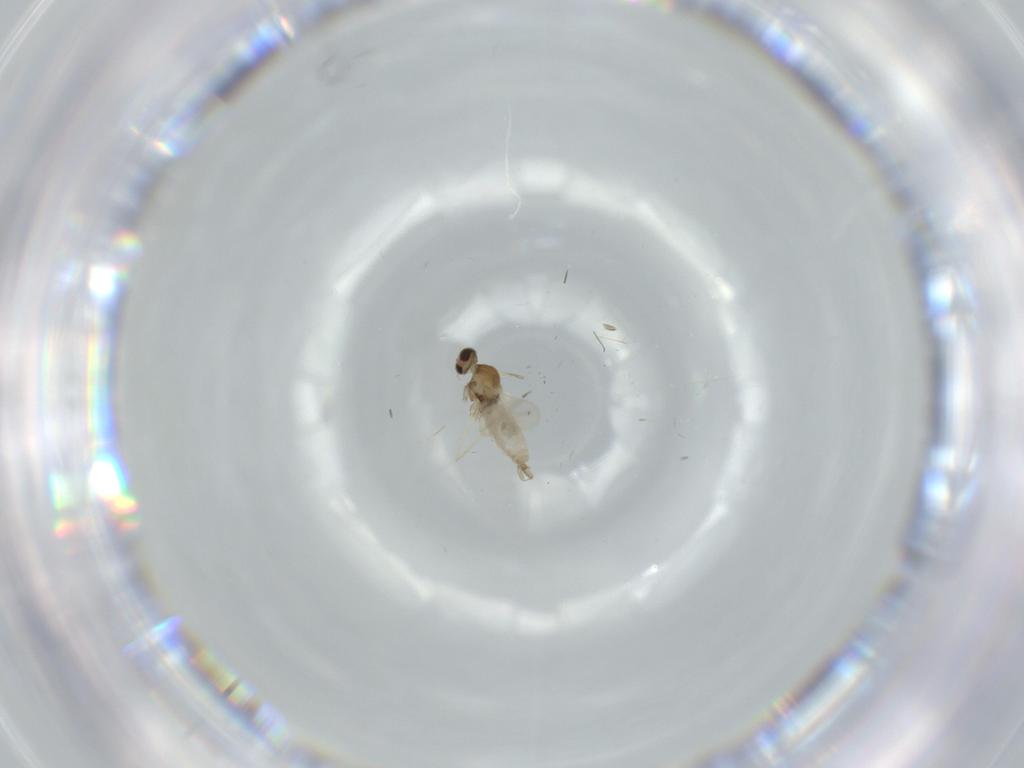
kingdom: Animalia
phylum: Arthropoda
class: Insecta
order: Diptera
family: Cecidomyiidae
